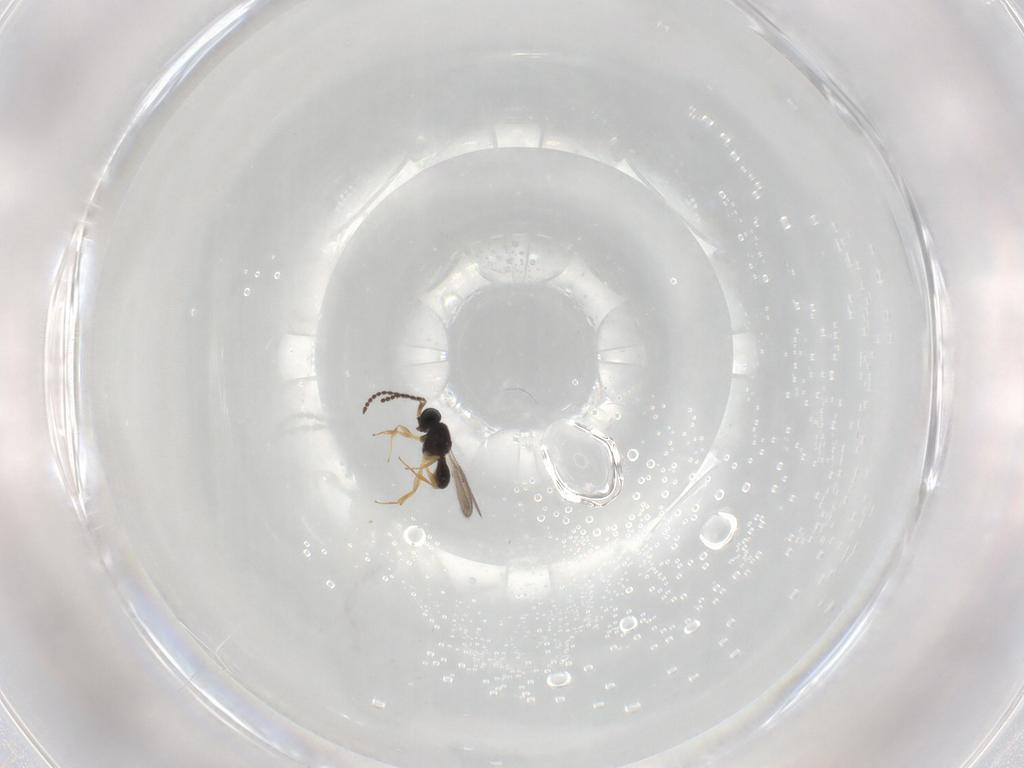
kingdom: Animalia
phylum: Arthropoda
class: Insecta
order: Hymenoptera
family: Scelionidae
